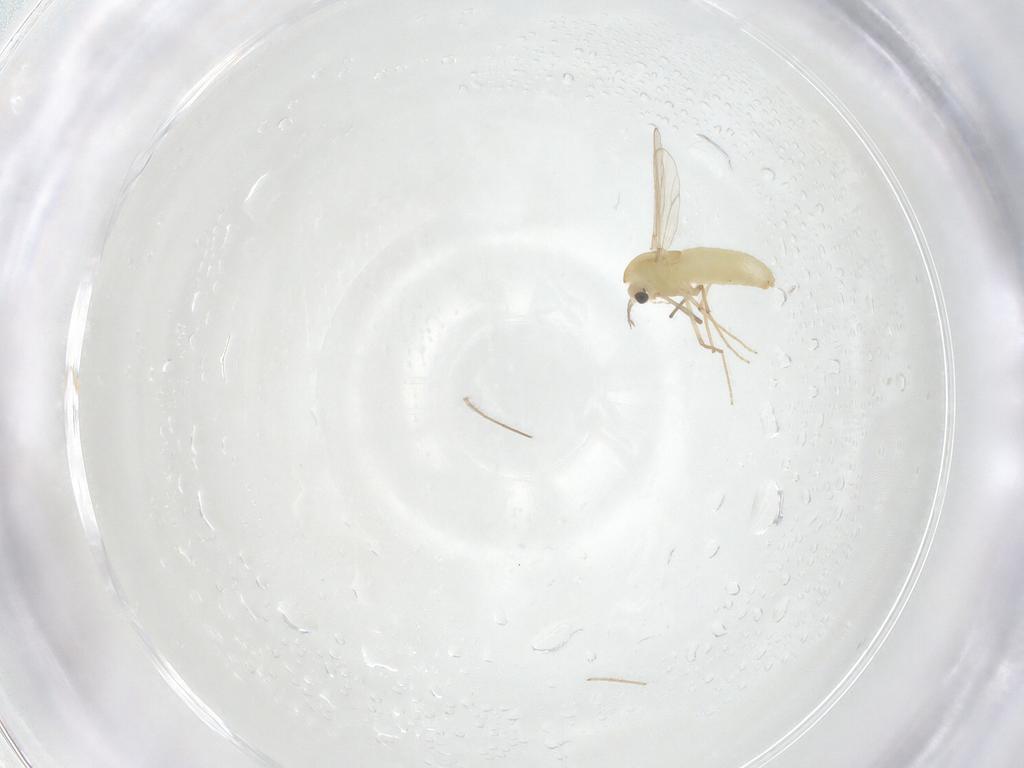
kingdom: Animalia
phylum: Arthropoda
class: Insecta
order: Diptera
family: Chironomidae
